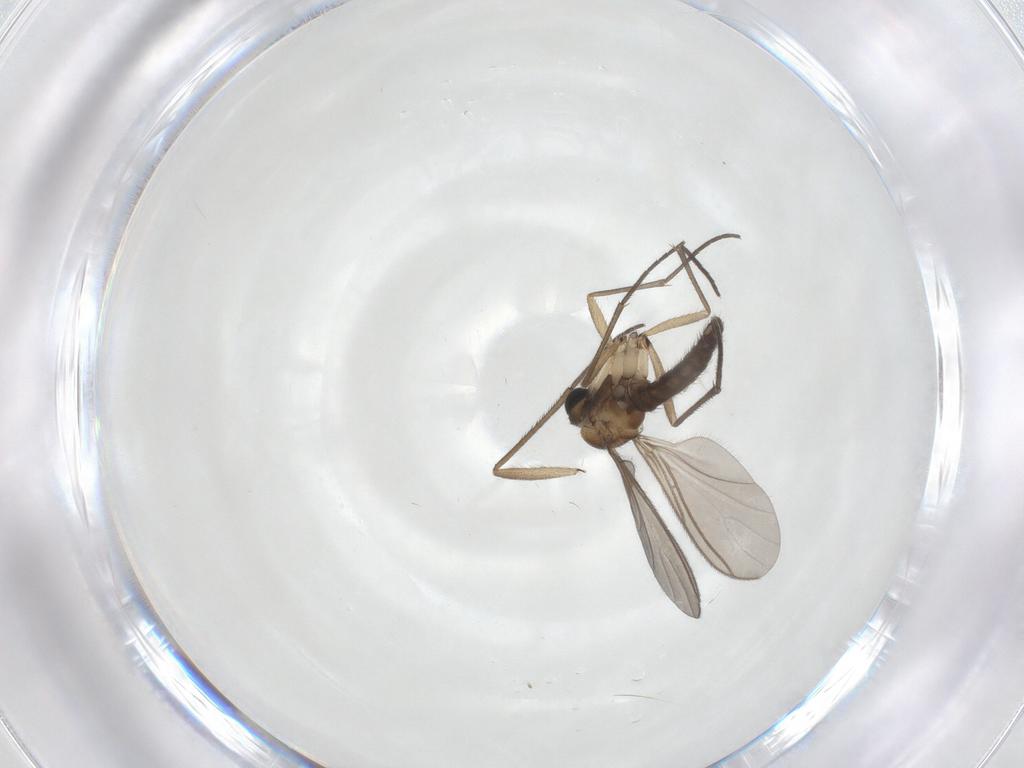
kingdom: Animalia
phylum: Arthropoda
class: Insecta
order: Diptera
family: Sciaridae
